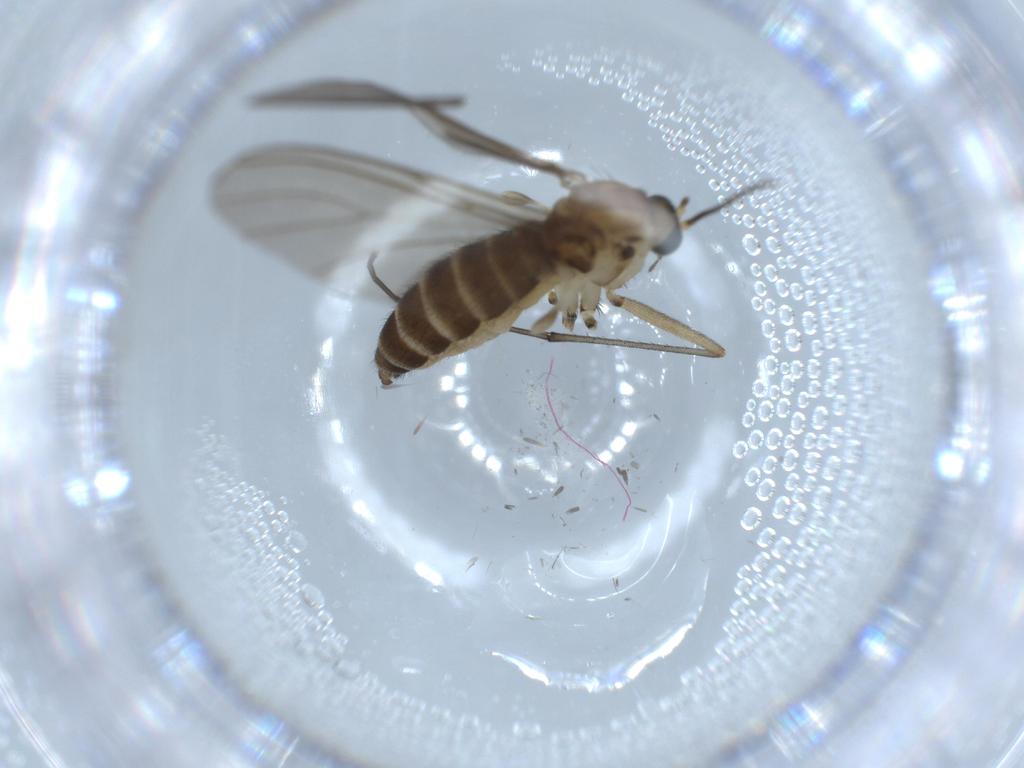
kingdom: Animalia
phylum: Arthropoda
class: Insecta
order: Diptera
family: Sciaridae
